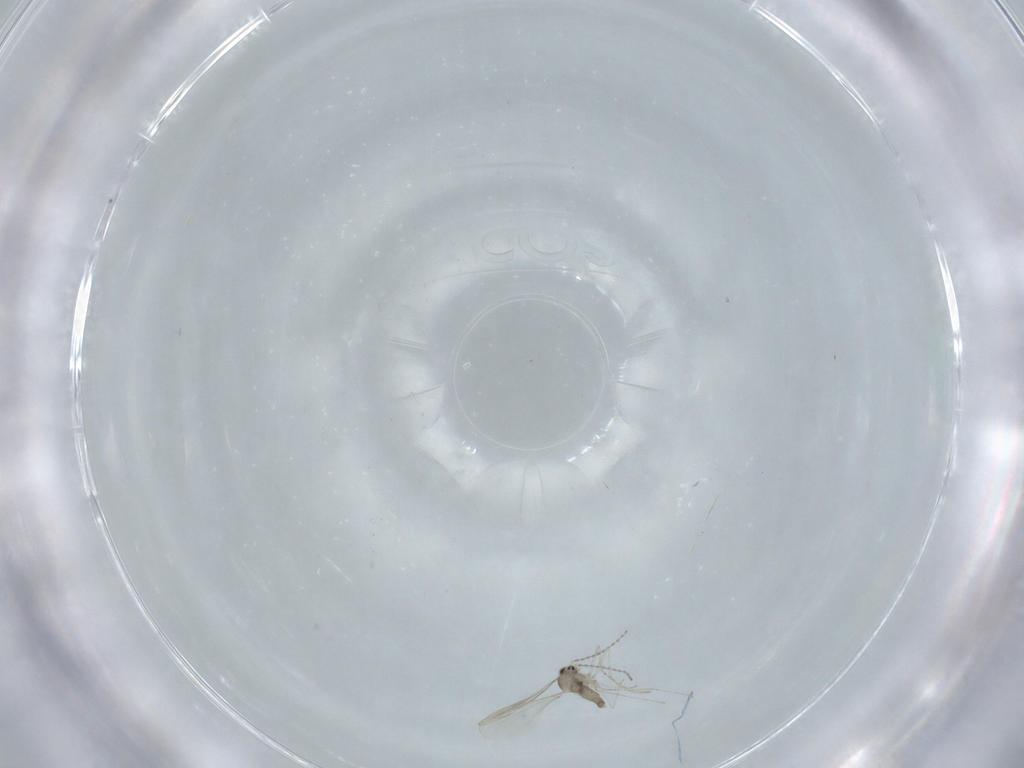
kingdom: Animalia
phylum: Arthropoda
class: Insecta
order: Diptera
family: Cecidomyiidae
